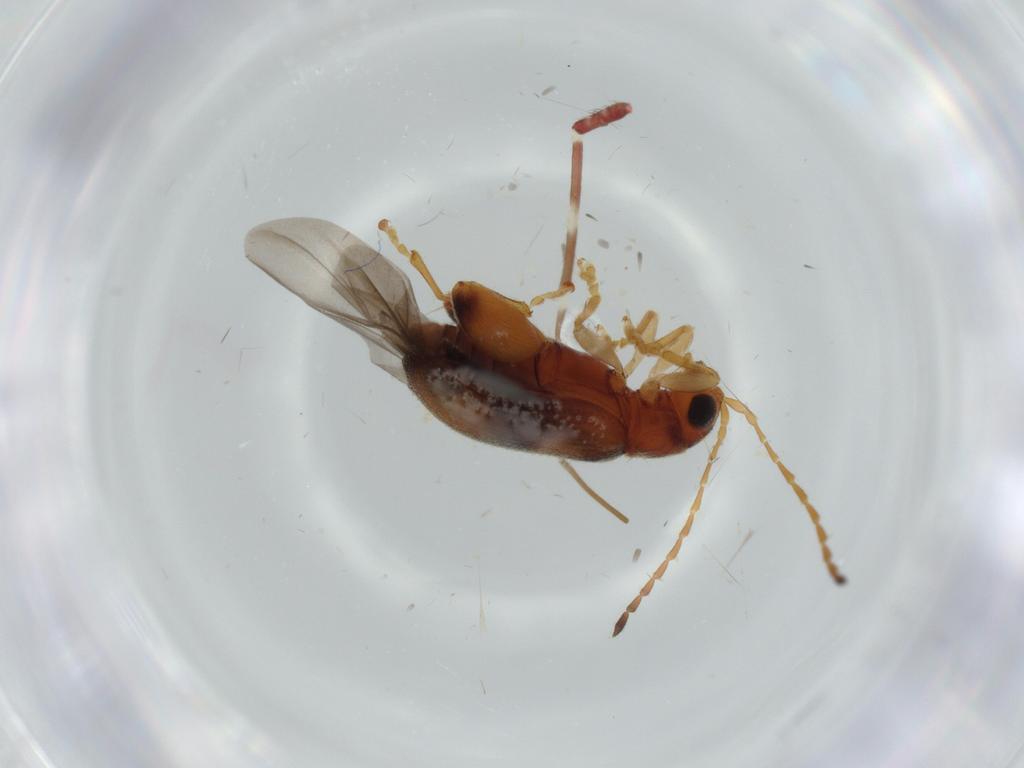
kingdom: Animalia
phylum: Arthropoda
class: Insecta
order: Coleoptera
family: Chrysomelidae
